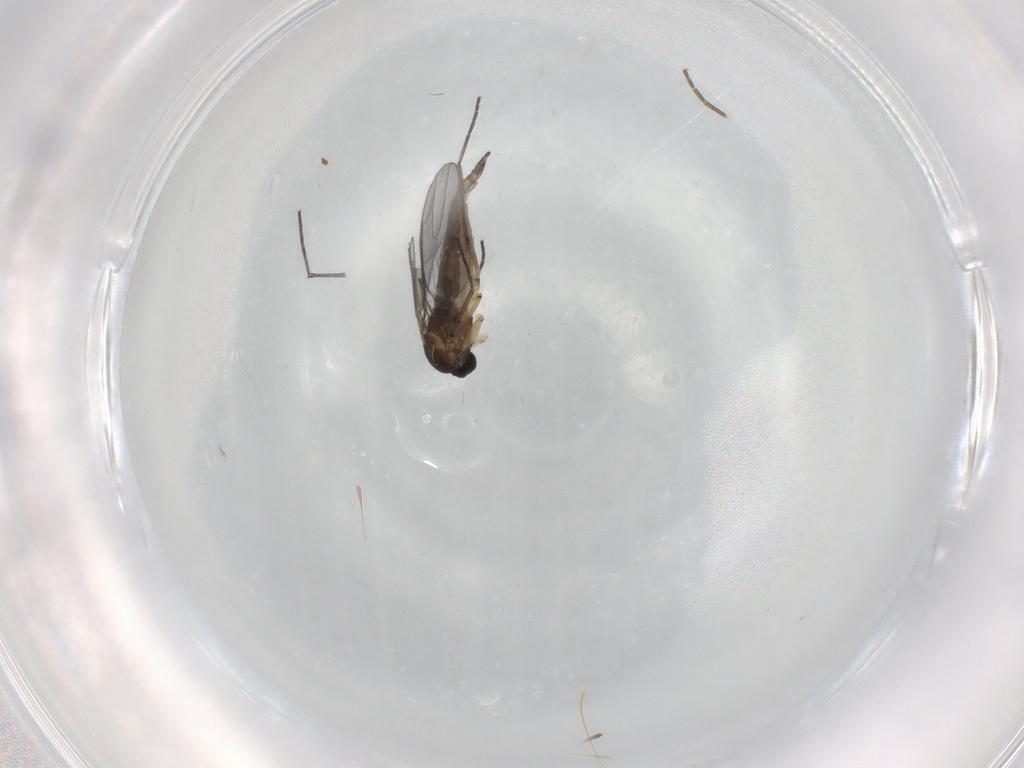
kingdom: Animalia
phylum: Arthropoda
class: Insecta
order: Diptera
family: Sciaridae
